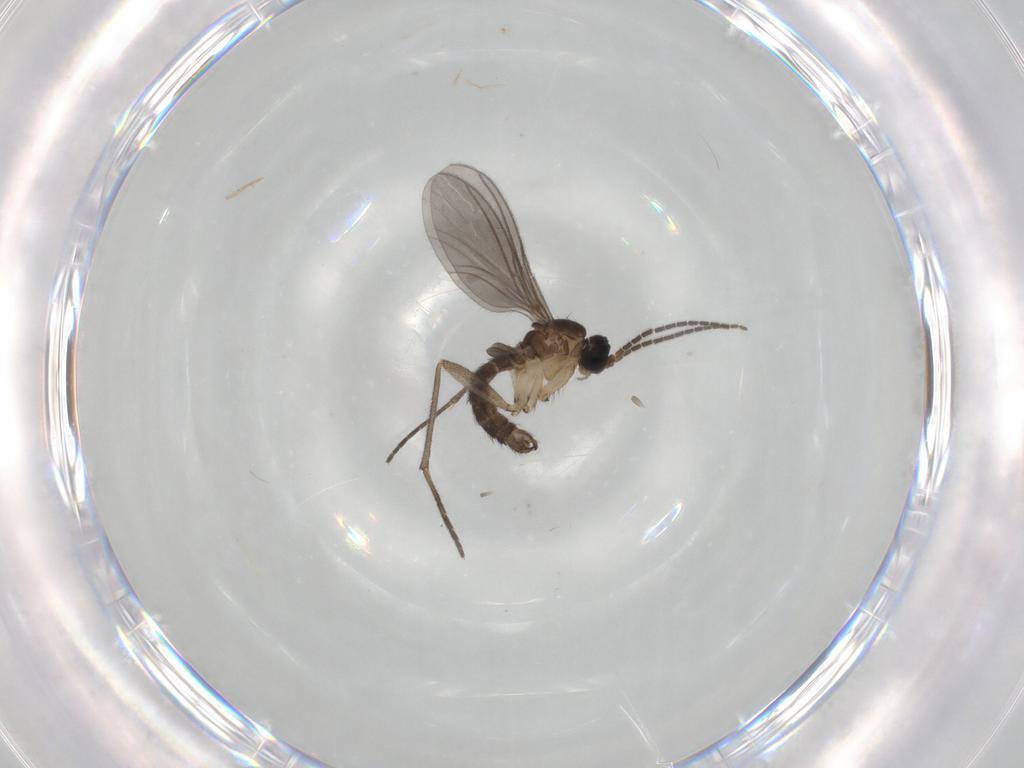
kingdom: Animalia
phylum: Arthropoda
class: Insecta
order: Diptera
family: Sciaridae
